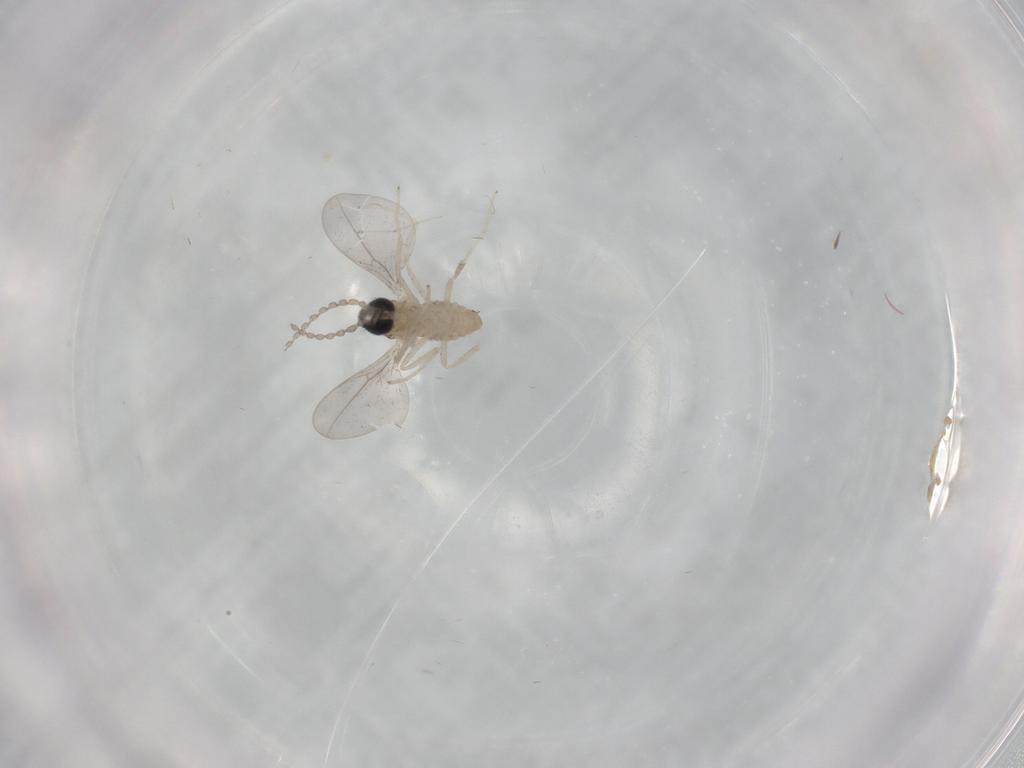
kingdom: Animalia
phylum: Arthropoda
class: Insecta
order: Diptera
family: Cecidomyiidae
